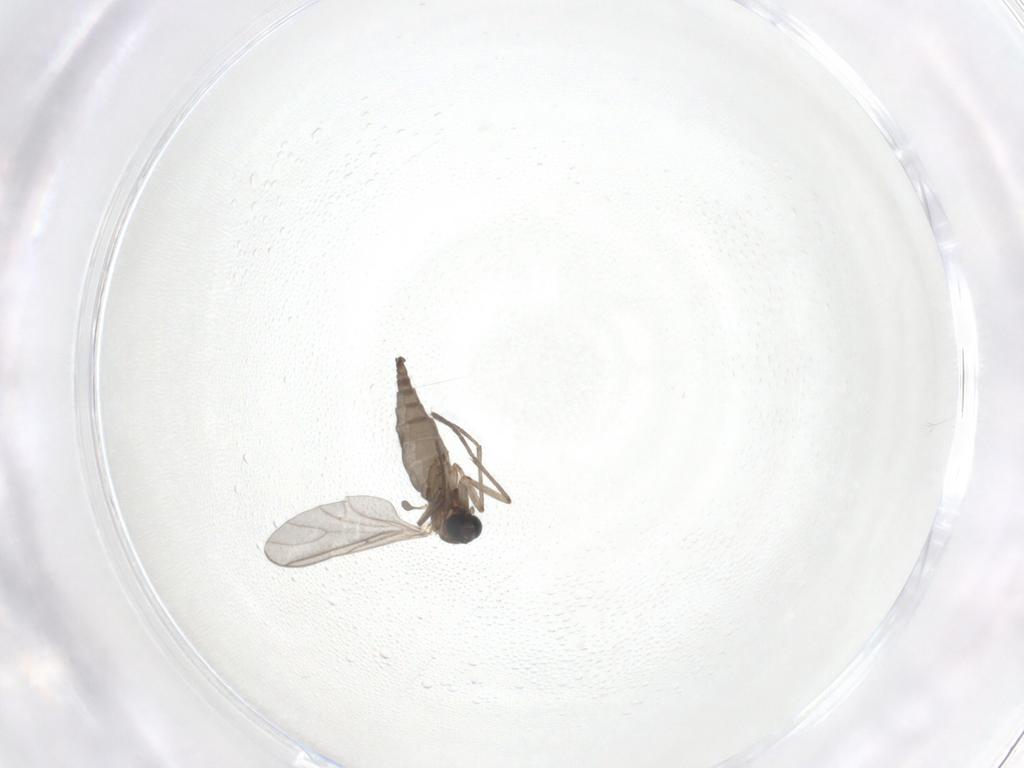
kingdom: Animalia
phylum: Arthropoda
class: Insecta
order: Diptera
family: Sciaridae
